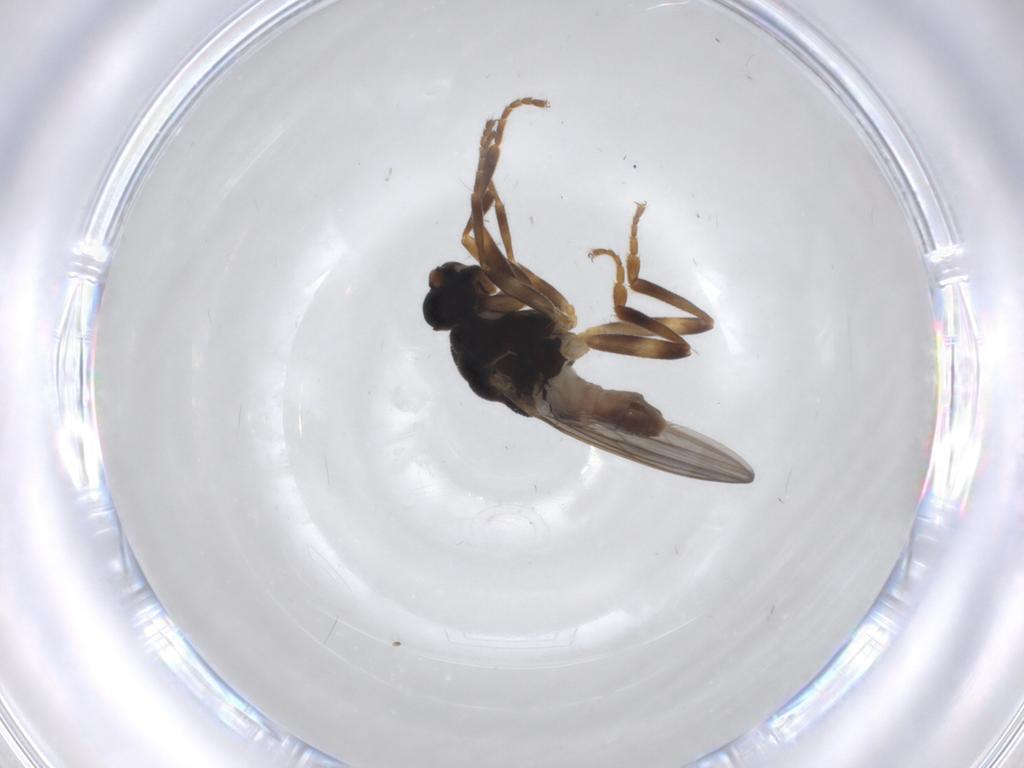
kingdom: Animalia
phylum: Arthropoda
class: Insecta
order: Diptera
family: Sphaeroceridae
